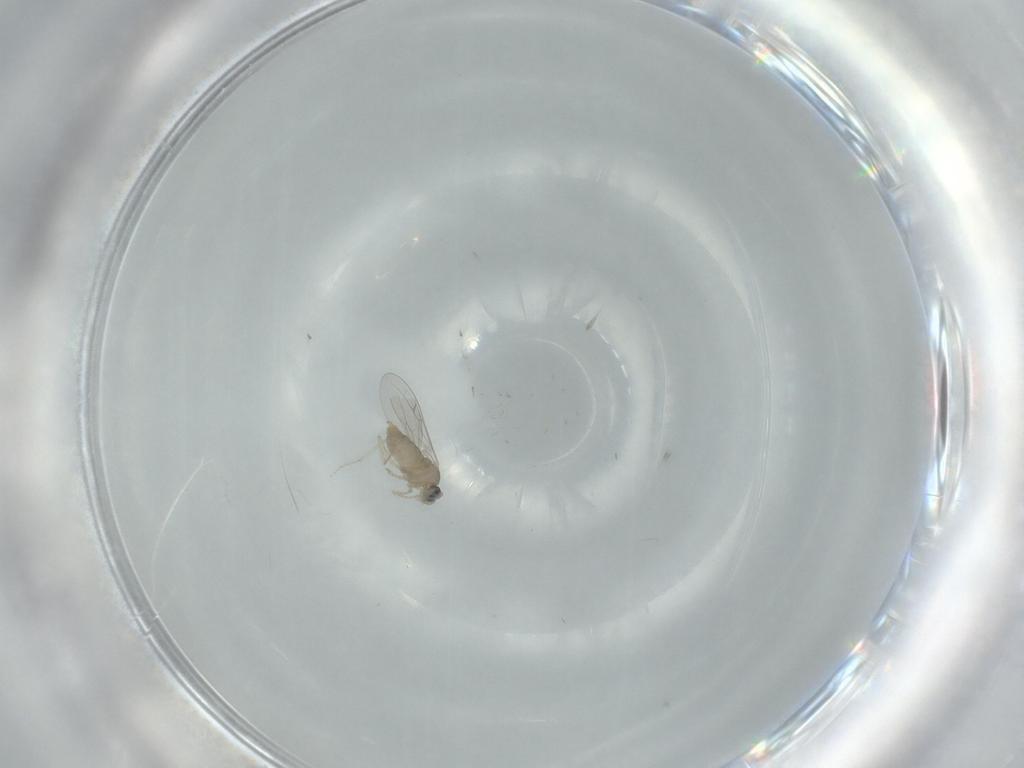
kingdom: Animalia
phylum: Arthropoda
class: Insecta
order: Diptera
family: Cecidomyiidae
